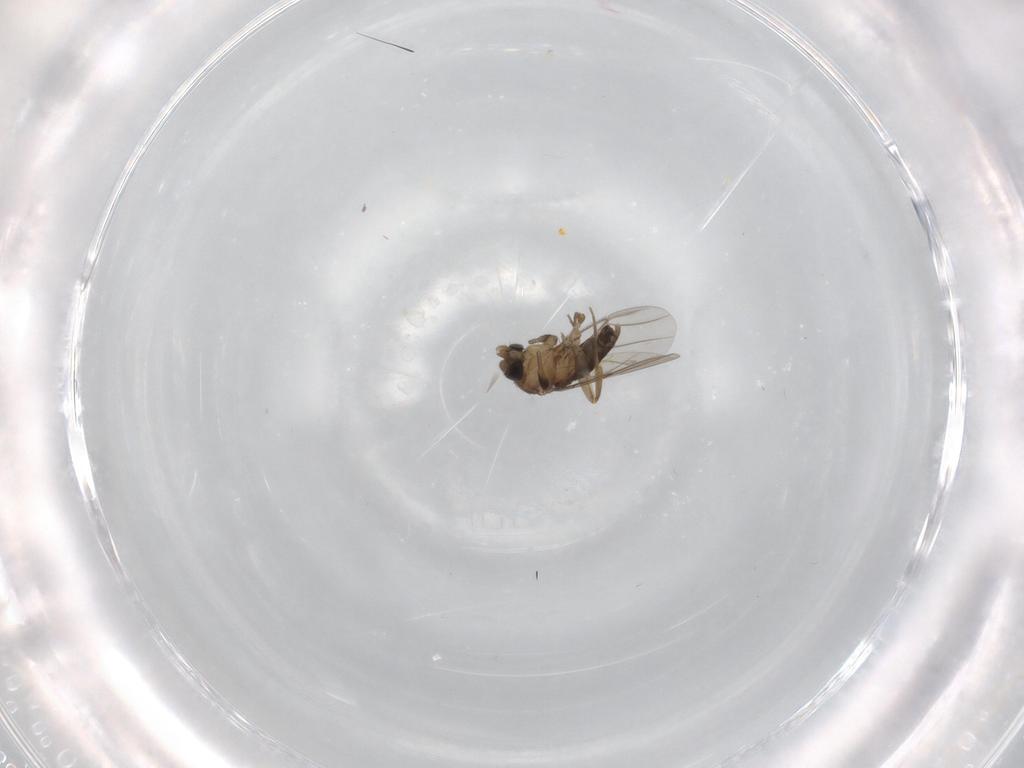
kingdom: Animalia
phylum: Arthropoda
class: Insecta
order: Diptera
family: Phoridae
